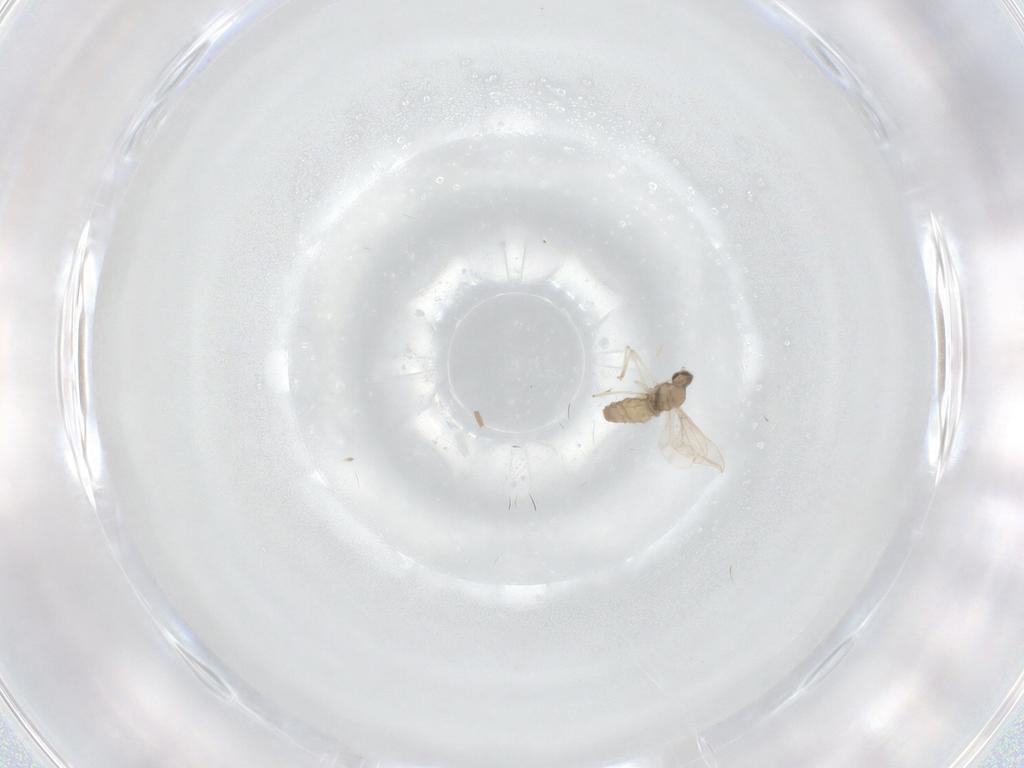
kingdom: Animalia
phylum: Arthropoda
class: Insecta
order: Diptera
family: Cecidomyiidae
